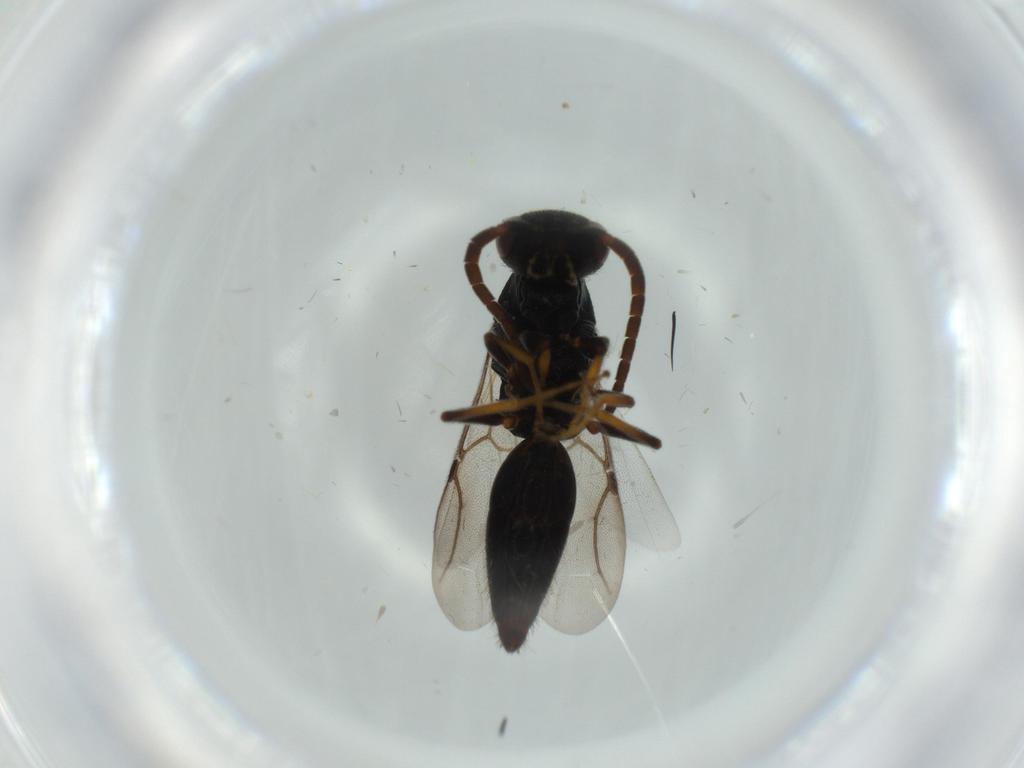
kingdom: Animalia
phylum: Arthropoda
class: Insecta
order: Hymenoptera
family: Bethylidae
